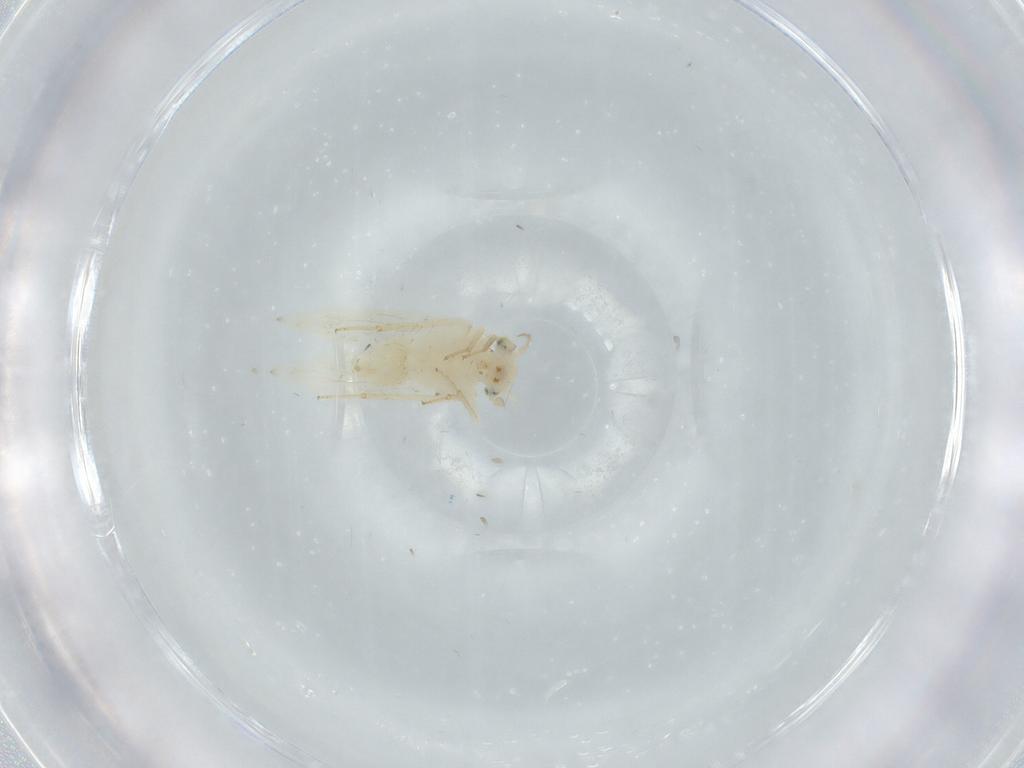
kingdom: Animalia
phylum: Arthropoda
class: Insecta
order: Psocodea
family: Lepidopsocidae
